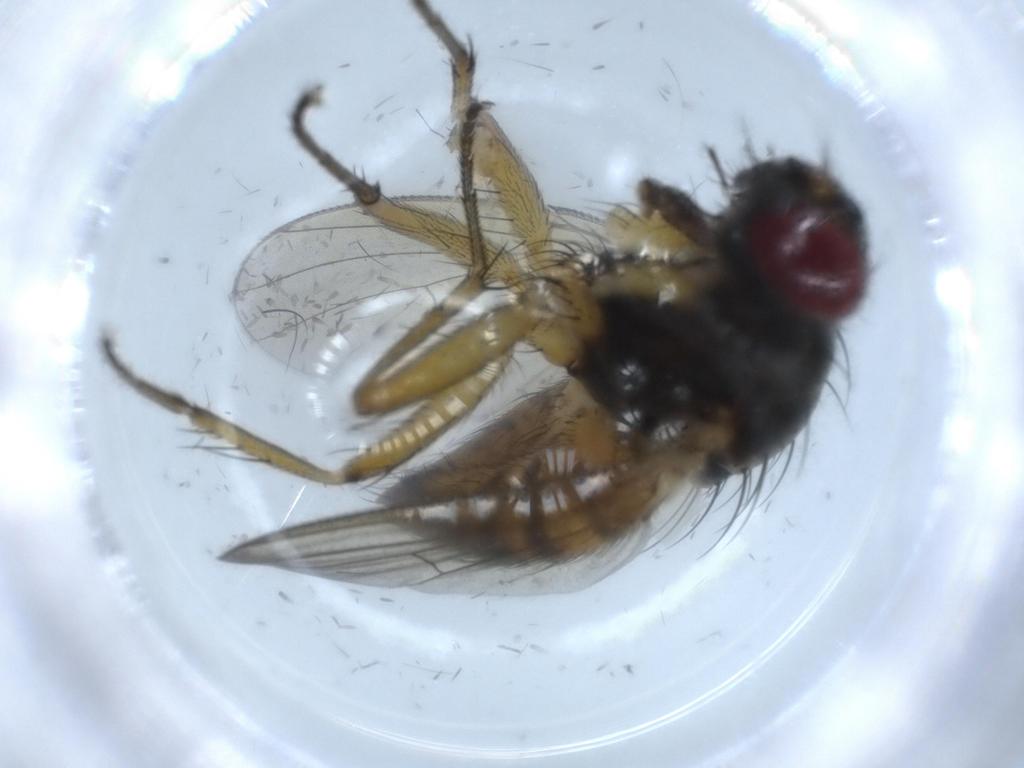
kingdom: Animalia
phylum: Arthropoda
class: Insecta
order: Diptera
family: Muscidae
